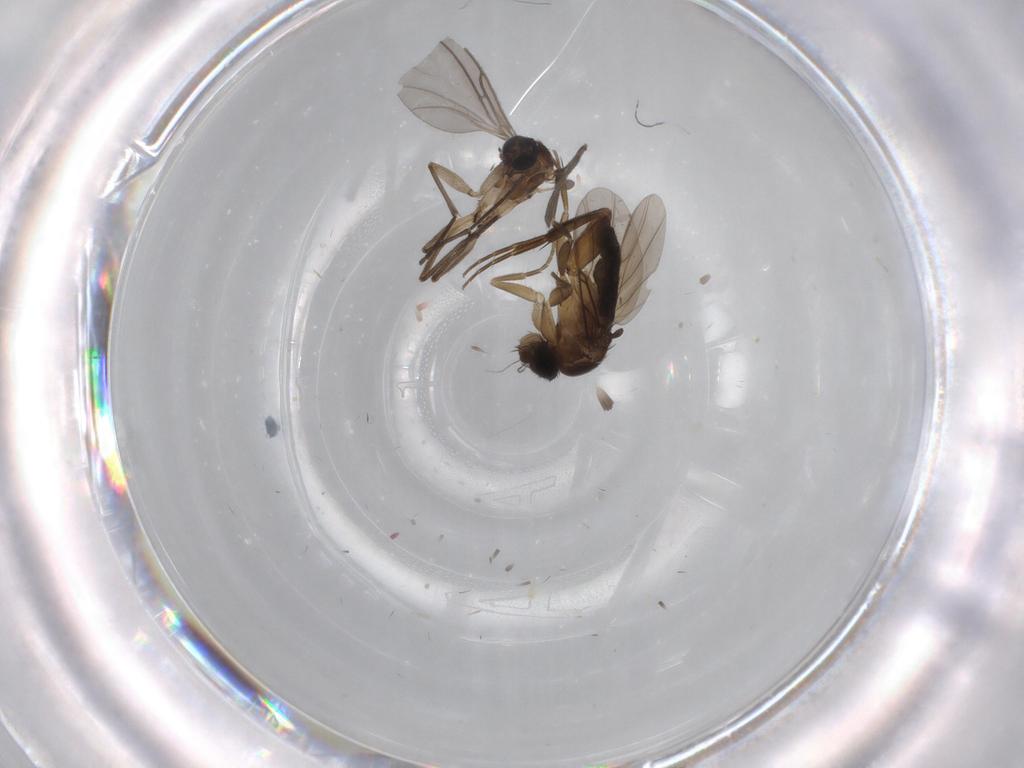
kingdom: Animalia
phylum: Arthropoda
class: Insecta
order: Diptera
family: Sciaridae
